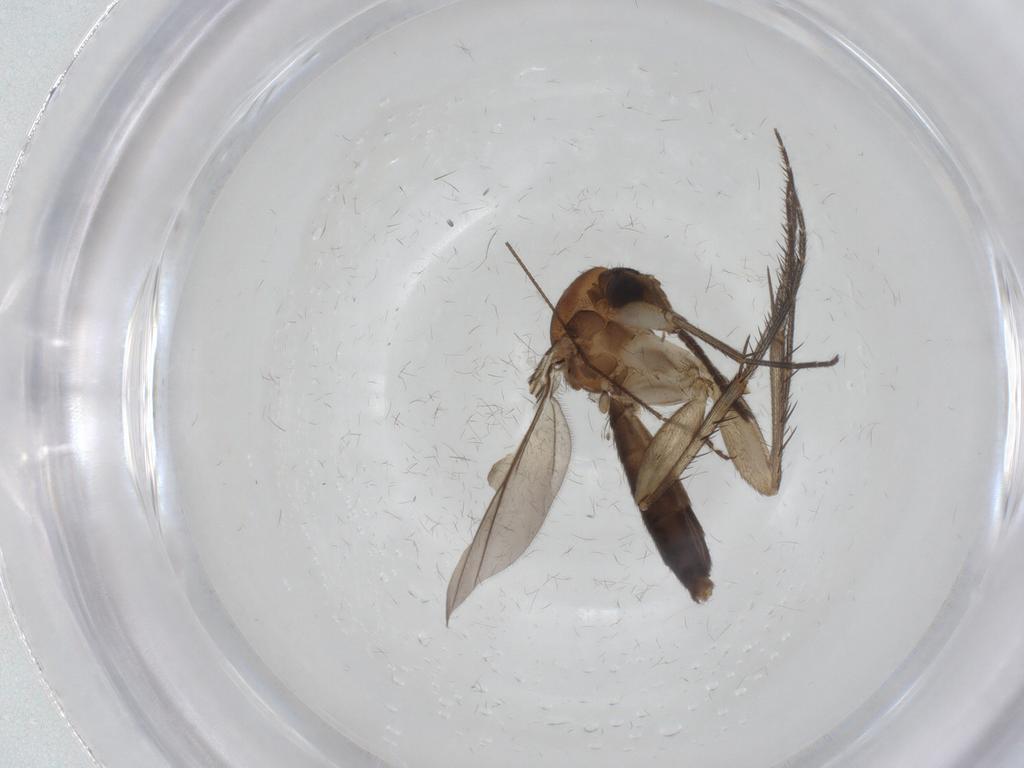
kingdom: Animalia
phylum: Arthropoda
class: Insecta
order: Diptera
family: Mycetophilidae
